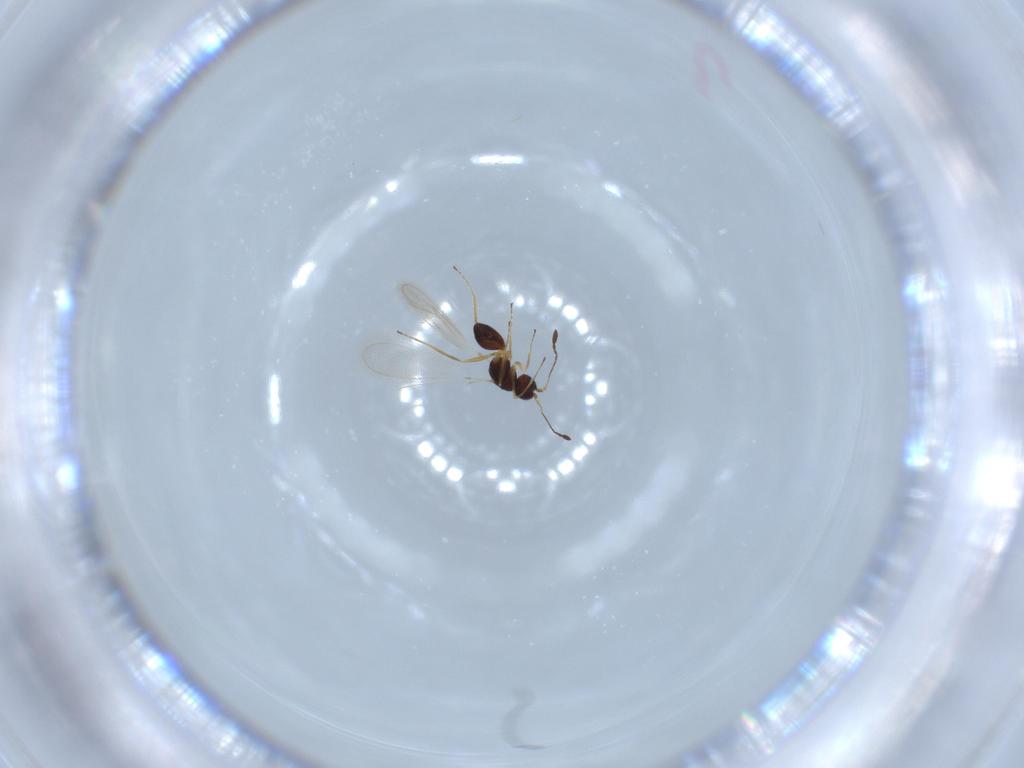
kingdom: Animalia
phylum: Arthropoda
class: Insecta
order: Hymenoptera
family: Mymaridae
